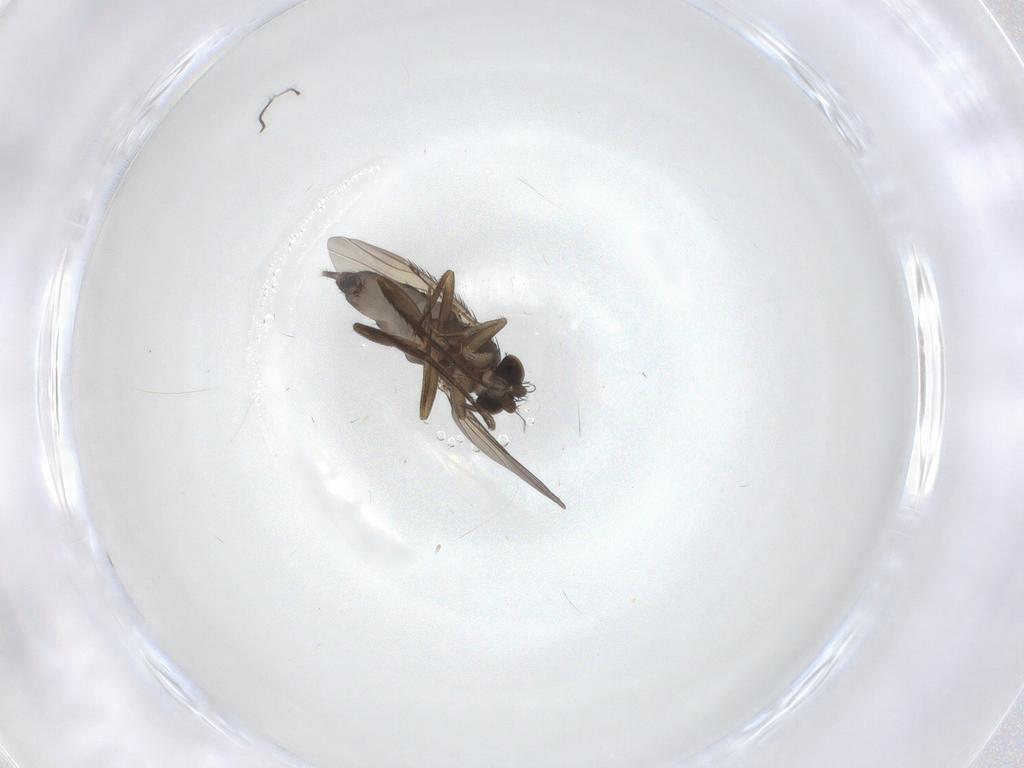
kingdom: Animalia
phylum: Arthropoda
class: Insecta
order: Diptera
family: Phoridae
